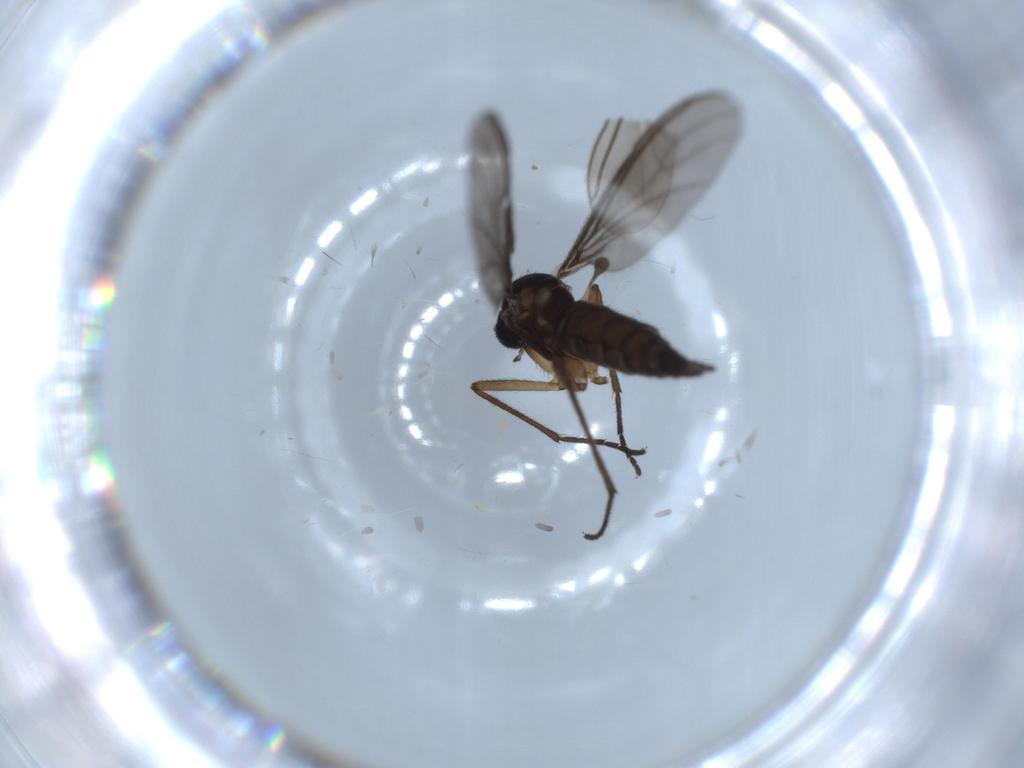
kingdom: Animalia
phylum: Arthropoda
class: Insecta
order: Diptera
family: Sciaridae
